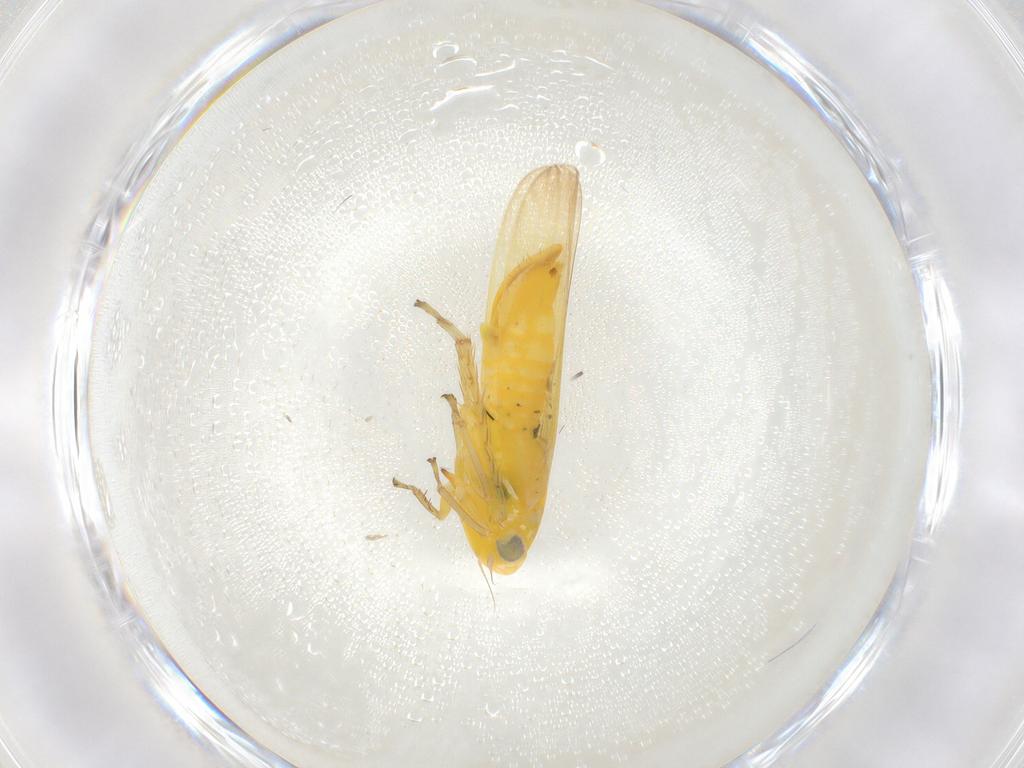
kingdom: Animalia
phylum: Arthropoda
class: Insecta
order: Hemiptera
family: Cicadellidae
